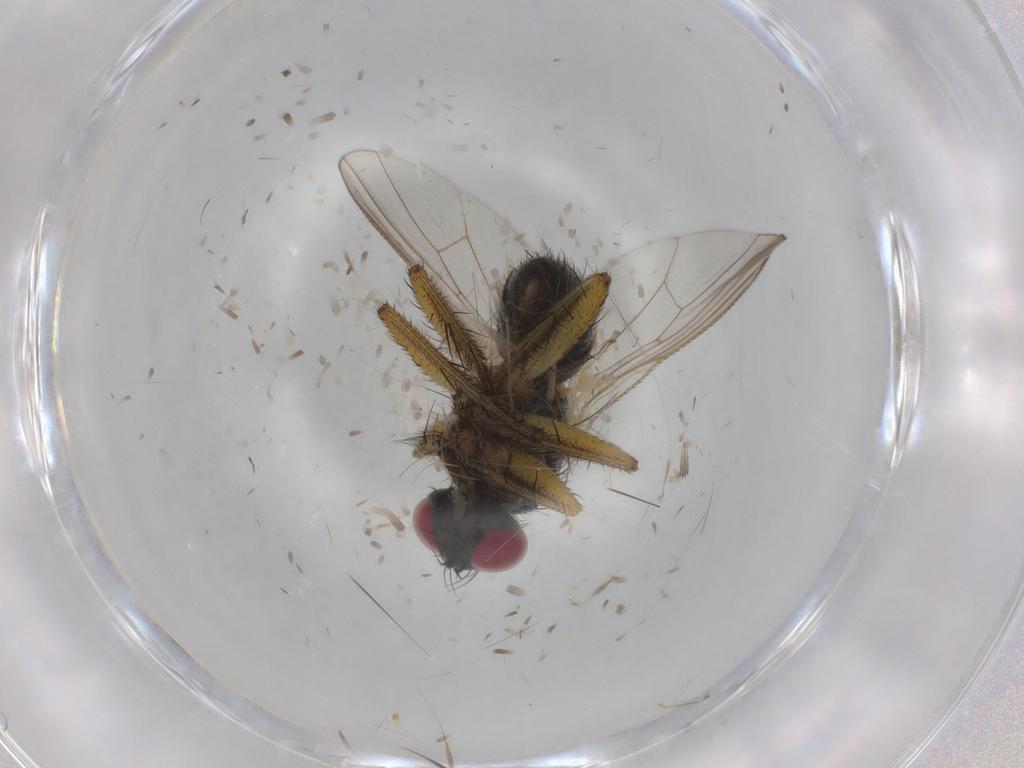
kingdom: Animalia
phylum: Arthropoda
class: Insecta
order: Diptera
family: Muscidae
